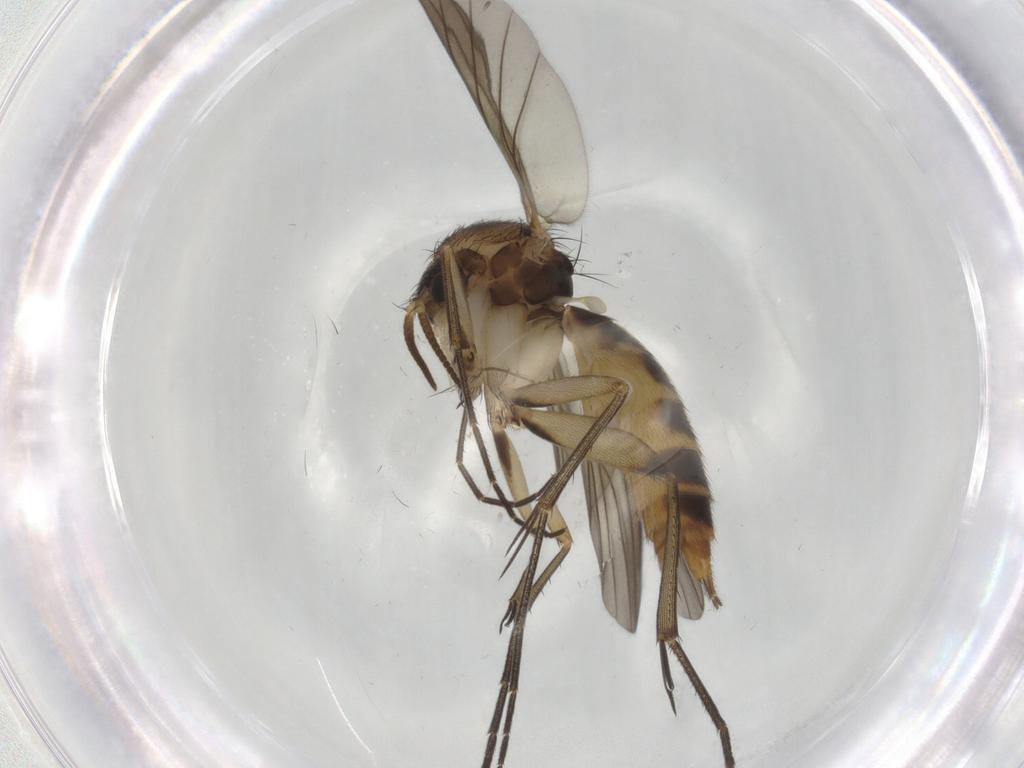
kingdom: Animalia
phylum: Arthropoda
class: Insecta
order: Diptera
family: Mycetophilidae
